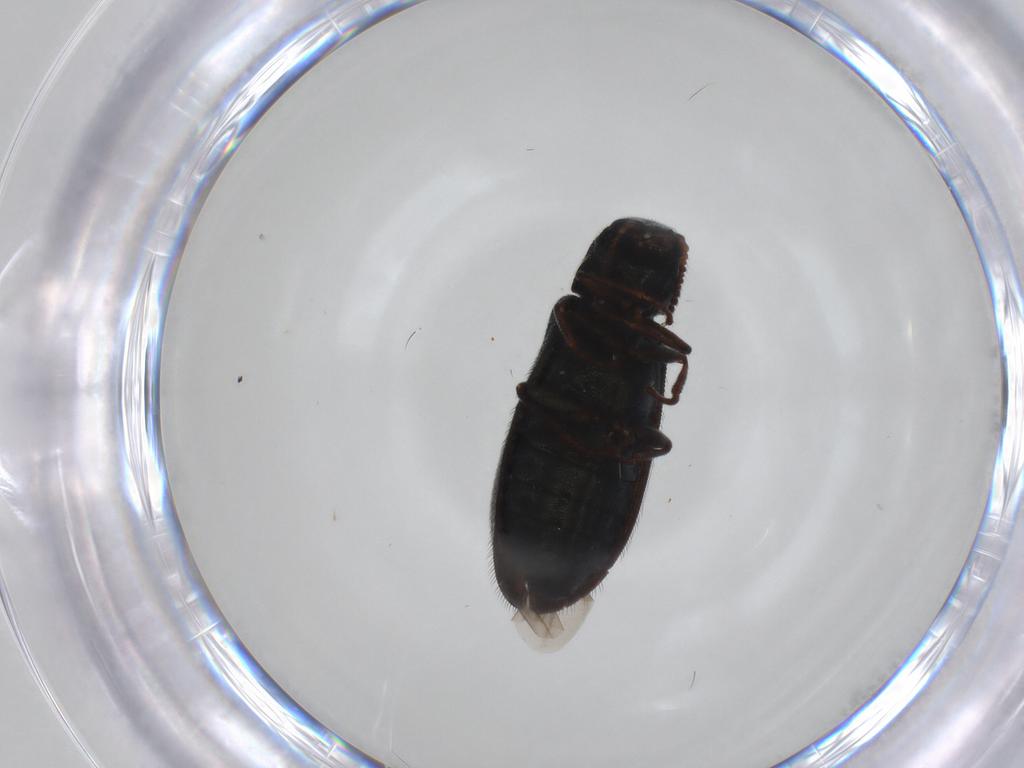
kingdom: Animalia
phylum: Arthropoda
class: Insecta
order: Coleoptera
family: Melyridae
